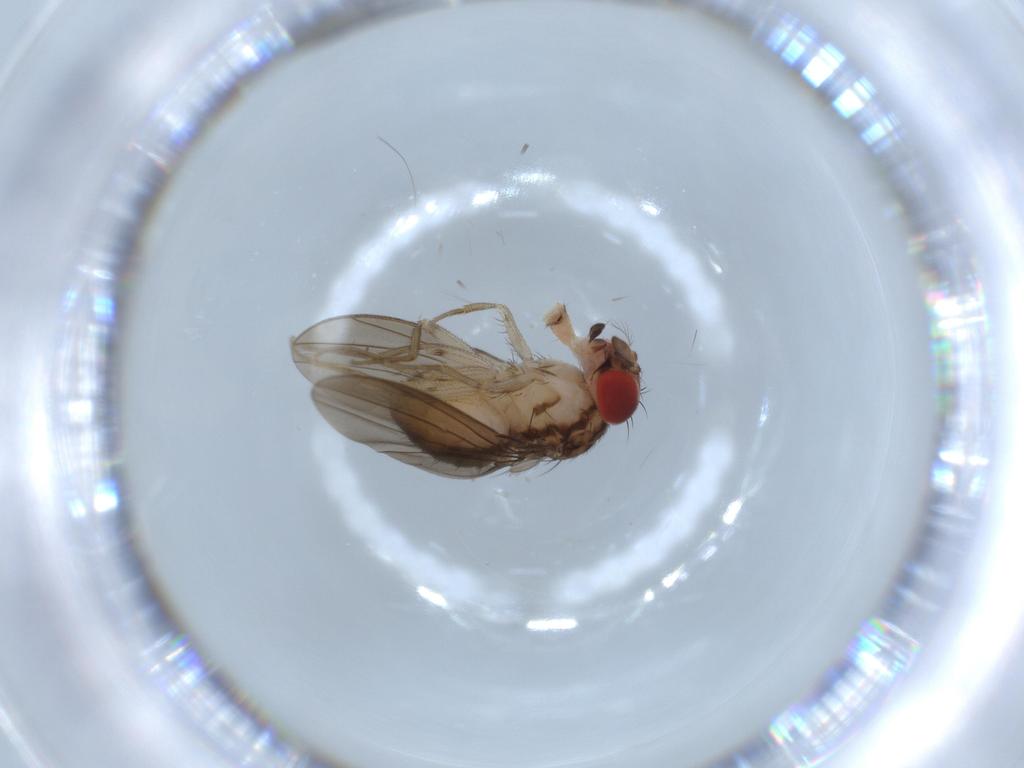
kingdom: Animalia
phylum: Arthropoda
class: Insecta
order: Diptera
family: Drosophilidae
